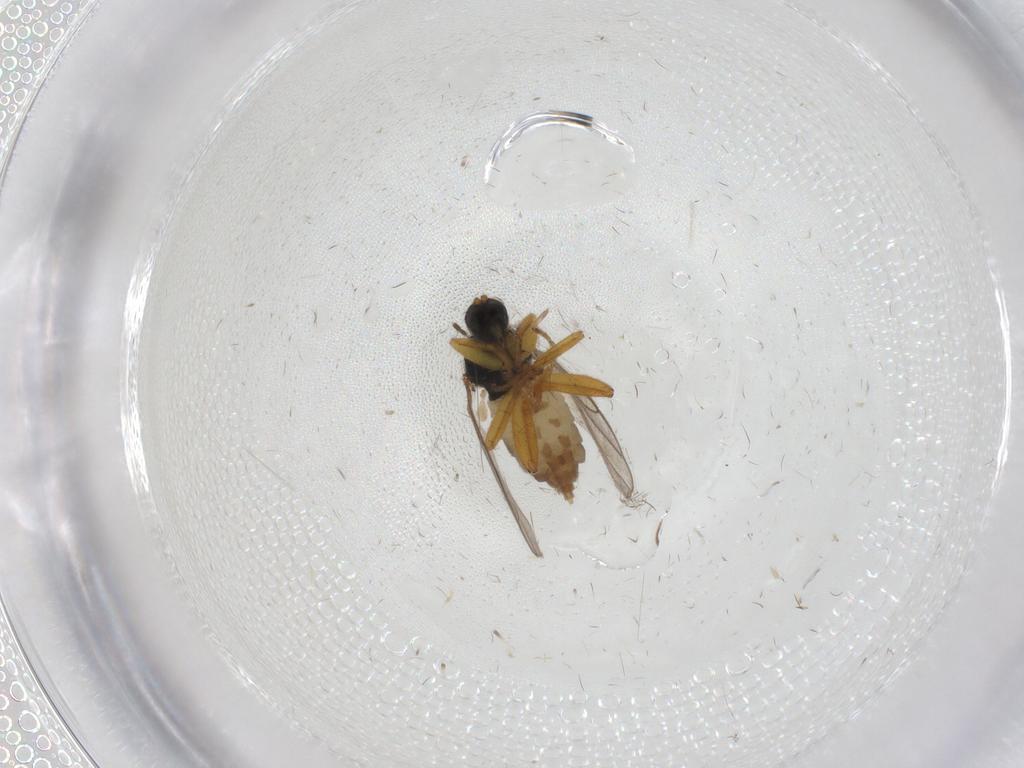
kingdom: Animalia
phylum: Arthropoda
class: Insecta
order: Diptera
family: Hybotidae
